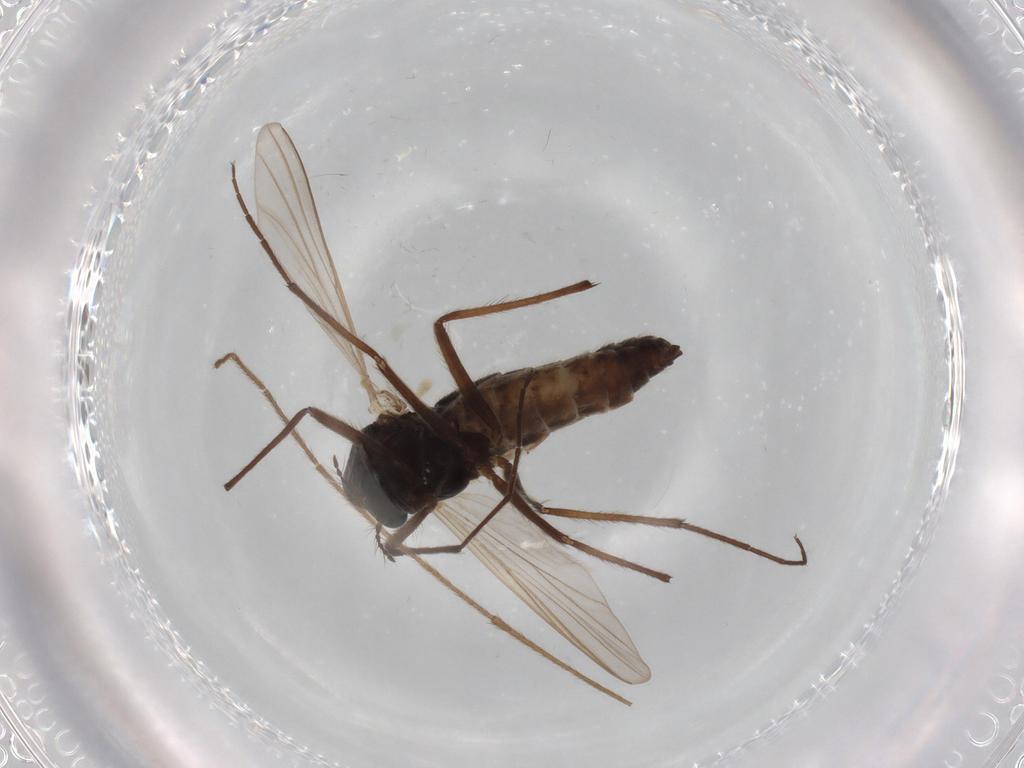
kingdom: Animalia
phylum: Arthropoda
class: Insecta
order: Diptera
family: Drosophilidae
